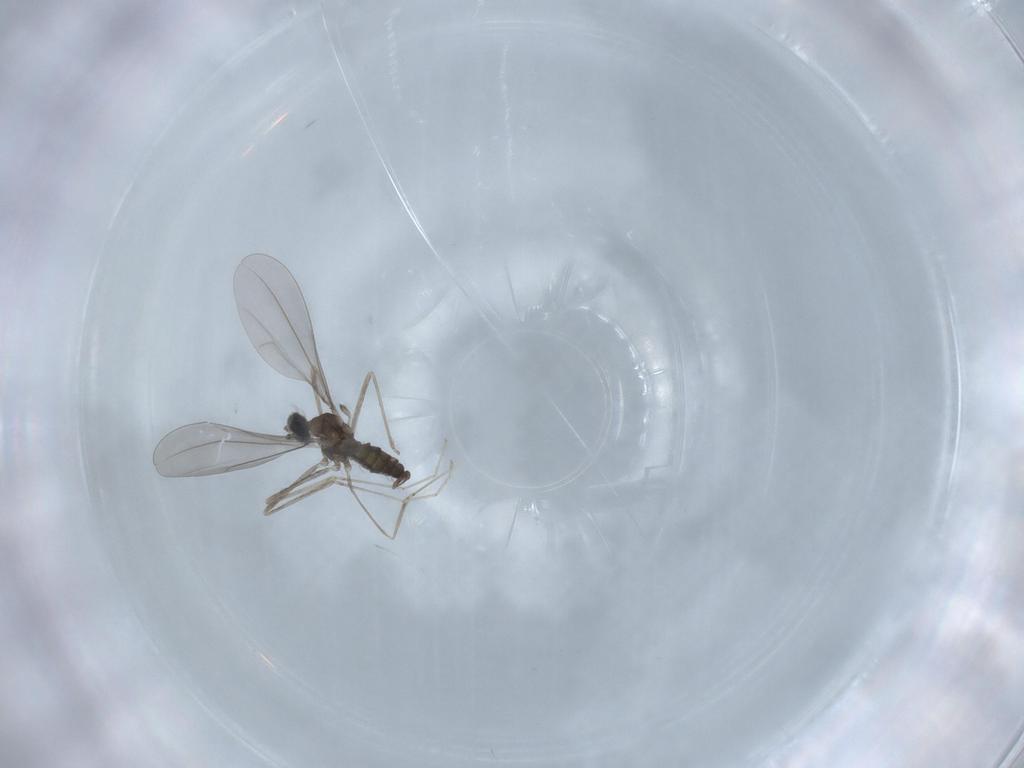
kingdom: Animalia
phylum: Arthropoda
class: Insecta
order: Diptera
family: Cecidomyiidae
